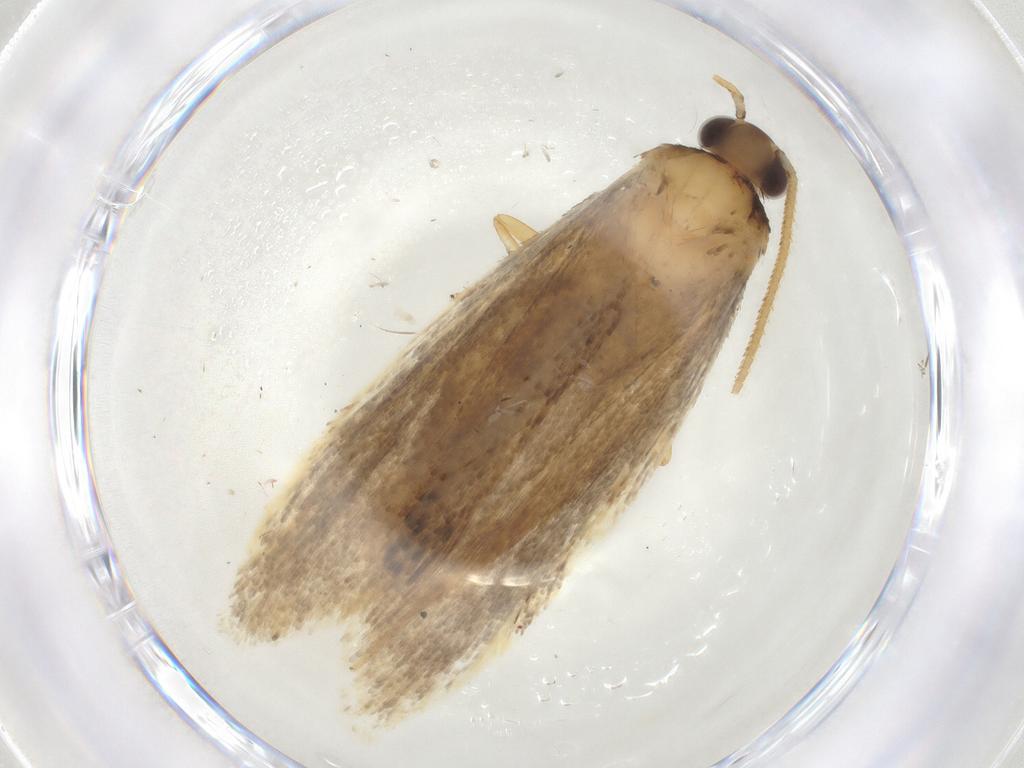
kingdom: Animalia
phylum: Arthropoda
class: Insecta
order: Lepidoptera
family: Gelechiidae
